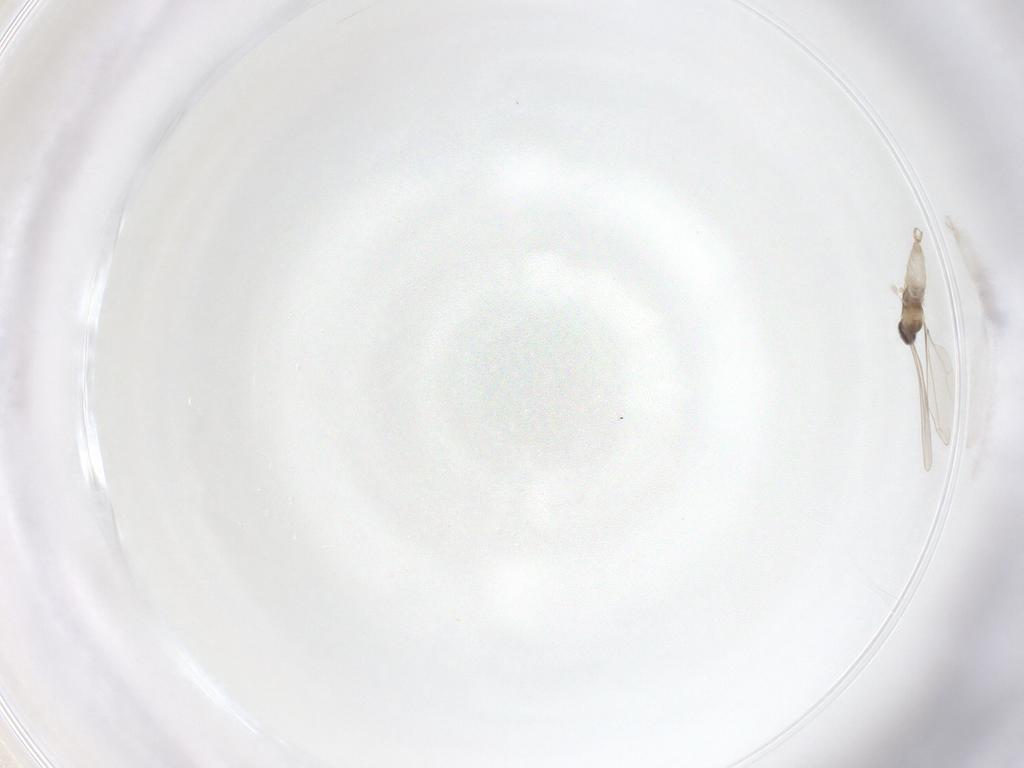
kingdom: Animalia
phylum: Arthropoda
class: Insecta
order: Diptera
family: Cecidomyiidae
